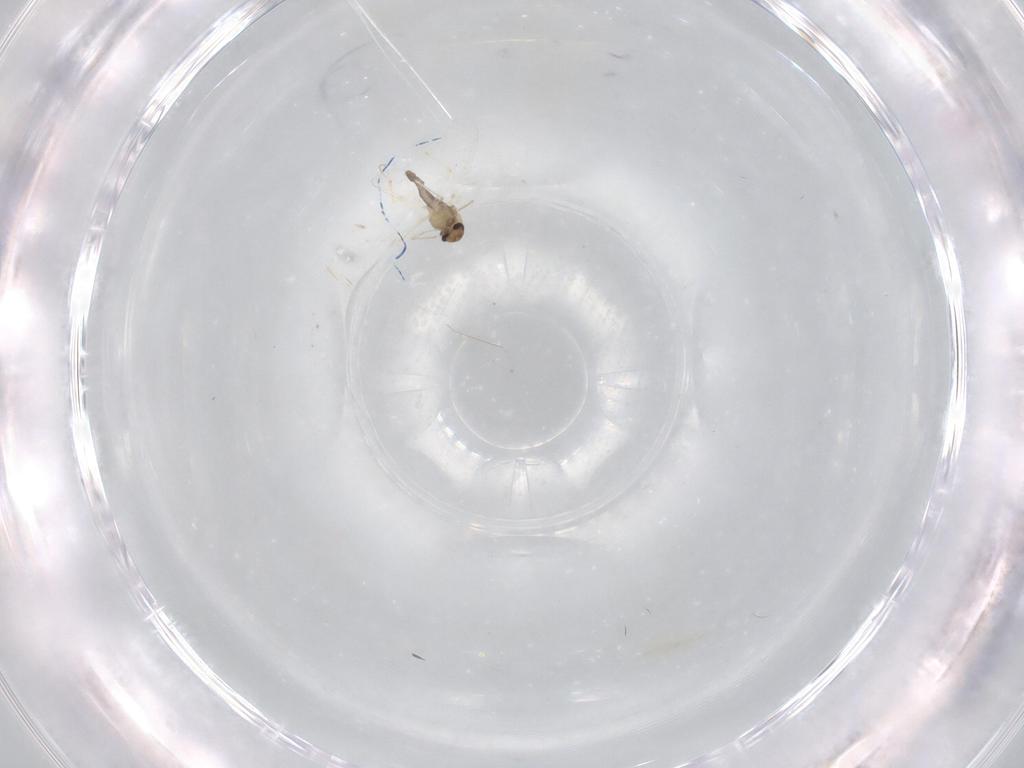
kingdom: Animalia
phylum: Arthropoda
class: Insecta
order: Diptera
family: Chironomidae
